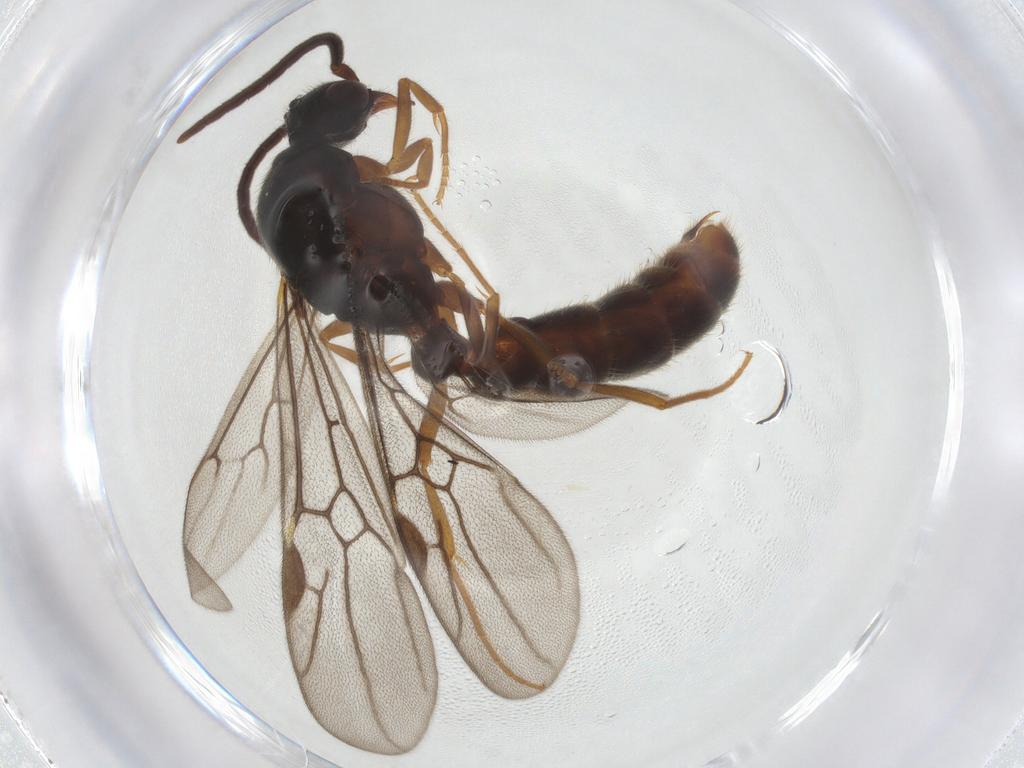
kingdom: Animalia
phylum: Arthropoda
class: Insecta
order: Hymenoptera
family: Formicidae
